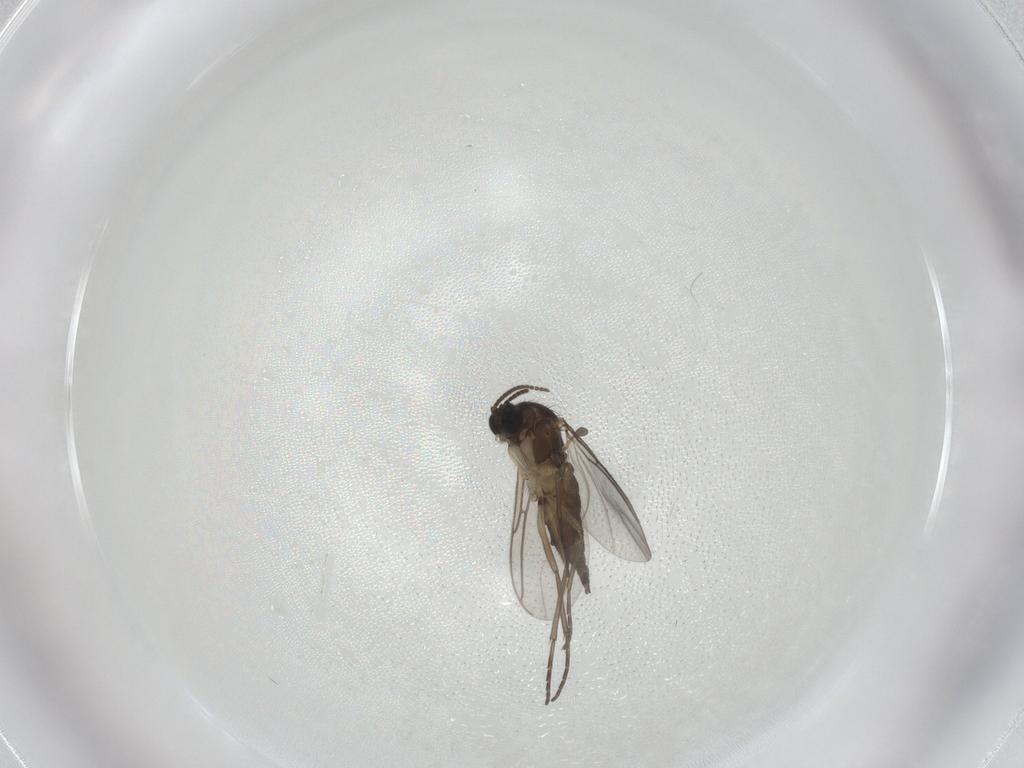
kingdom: Animalia
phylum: Arthropoda
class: Insecta
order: Diptera
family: Sciaridae
